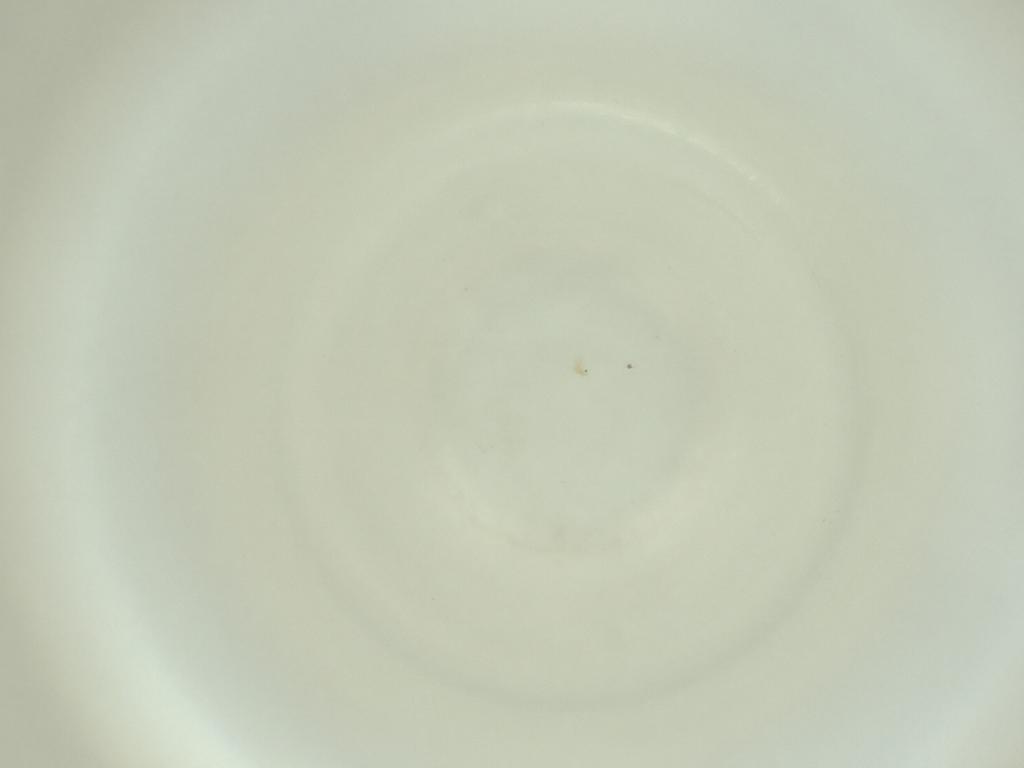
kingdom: Animalia
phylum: Arthropoda
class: Insecta
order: Diptera
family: Cecidomyiidae
